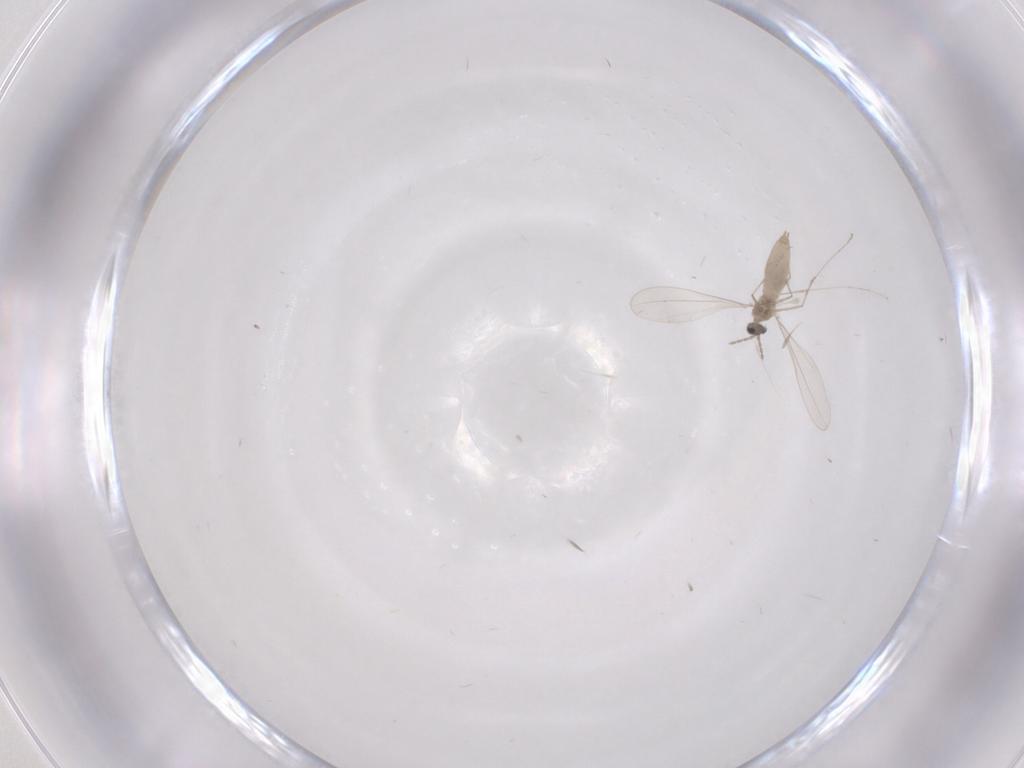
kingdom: Animalia
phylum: Arthropoda
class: Insecta
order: Diptera
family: Cecidomyiidae
